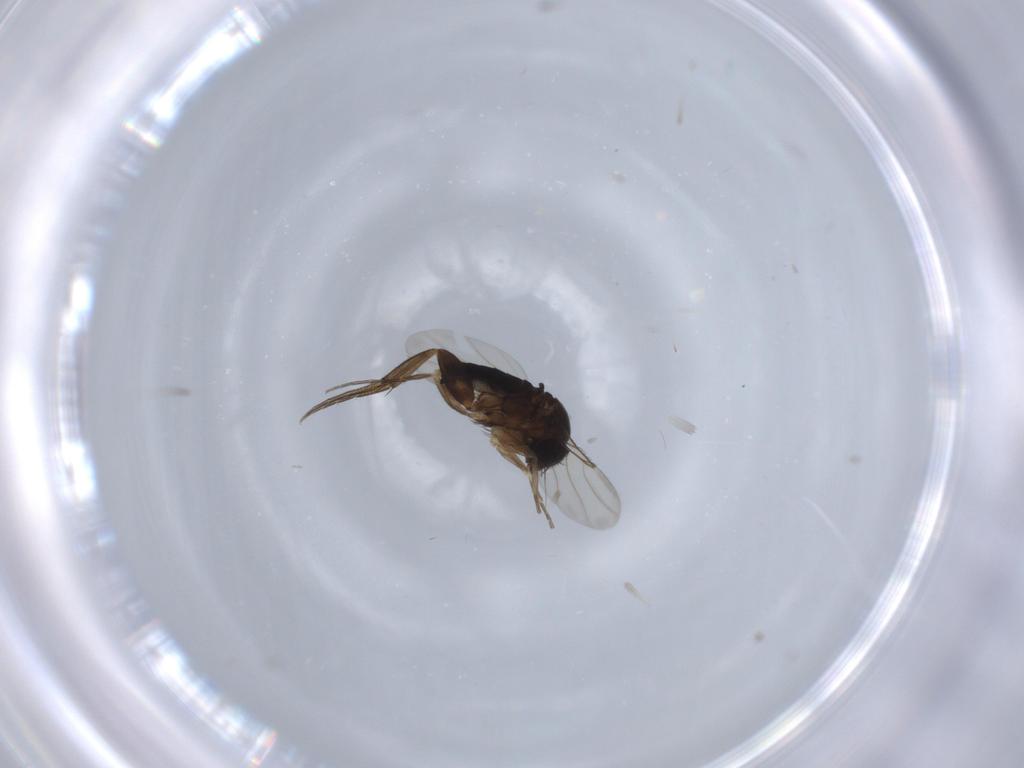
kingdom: Animalia
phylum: Arthropoda
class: Insecta
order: Diptera
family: Phoridae
